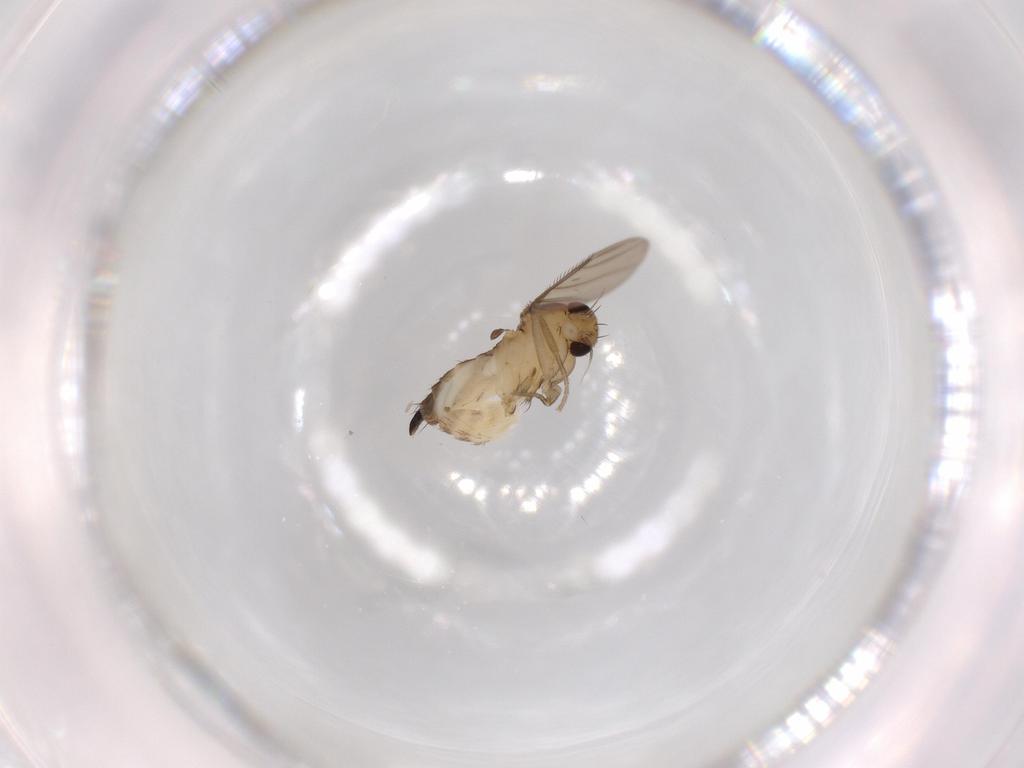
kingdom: Animalia
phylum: Arthropoda
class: Insecta
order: Diptera
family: Phoridae
